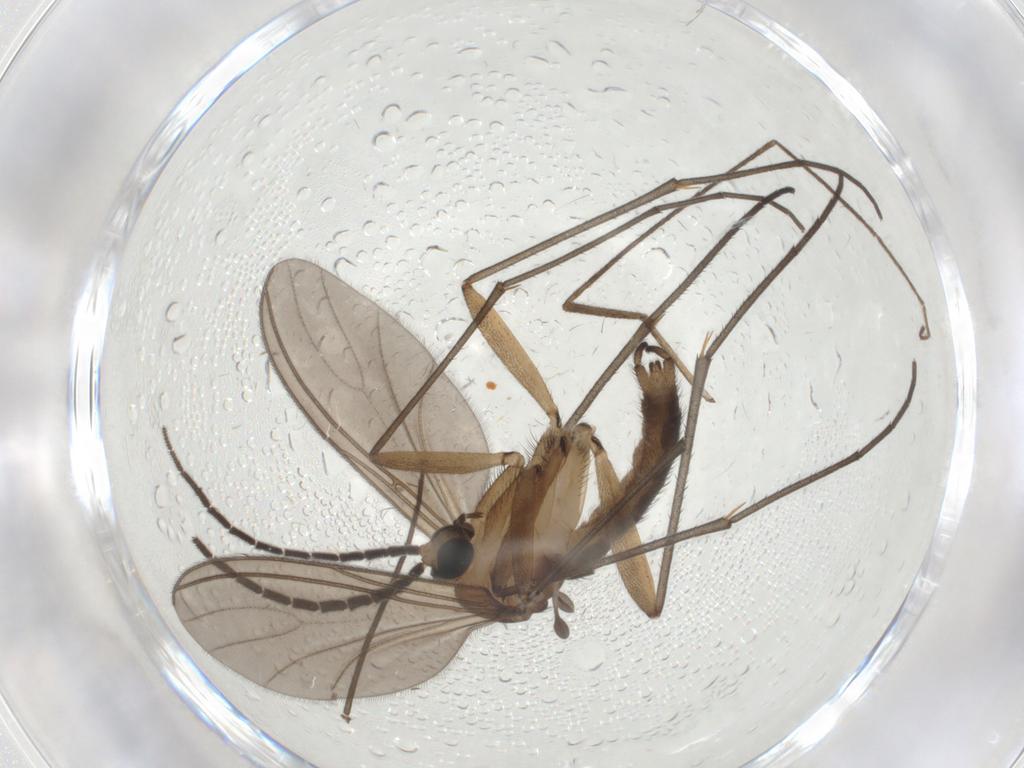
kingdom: Animalia
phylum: Arthropoda
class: Insecta
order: Diptera
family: Limoniidae
